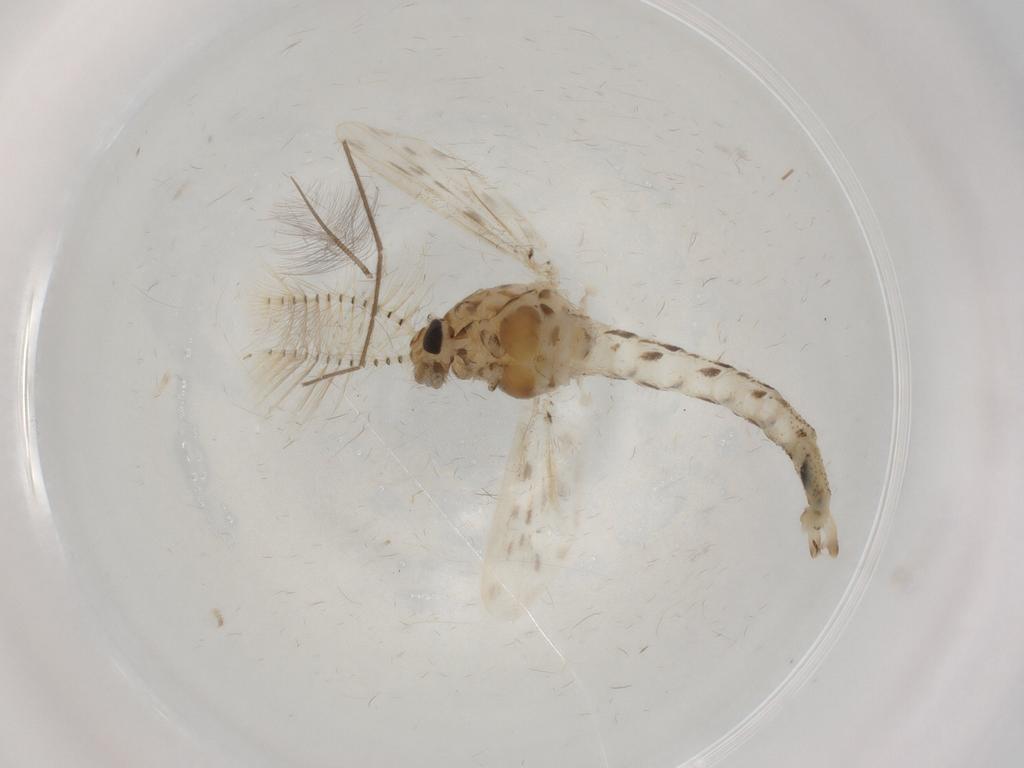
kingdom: Animalia
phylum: Arthropoda
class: Insecta
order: Diptera
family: Chaoboridae
